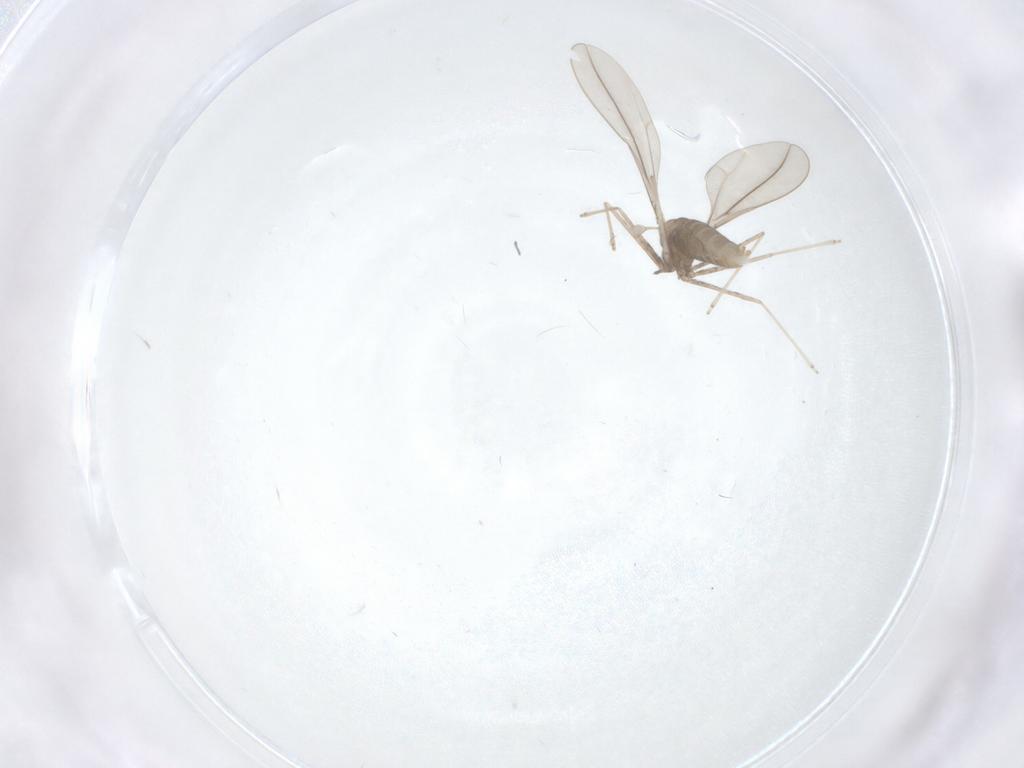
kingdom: Animalia
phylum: Arthropoda
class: Insecta
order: Diptera
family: Cecidomyiidae
